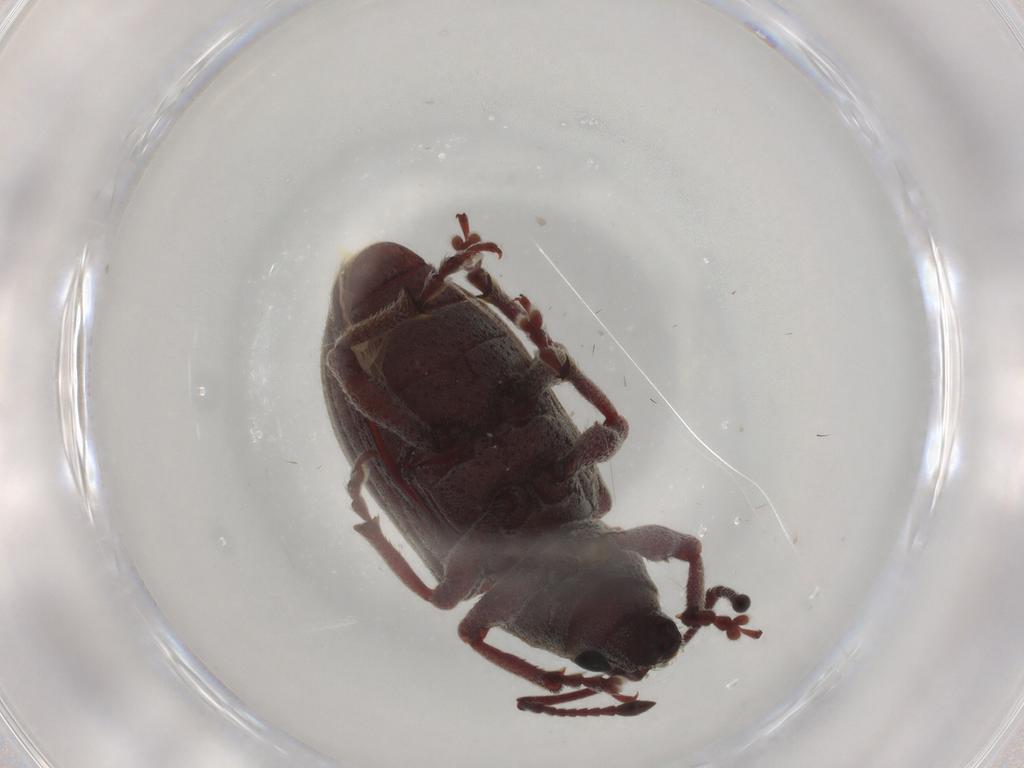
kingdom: Animalia
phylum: Arthropoda
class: Insecta
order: Coleoptera
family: Curculionidae
